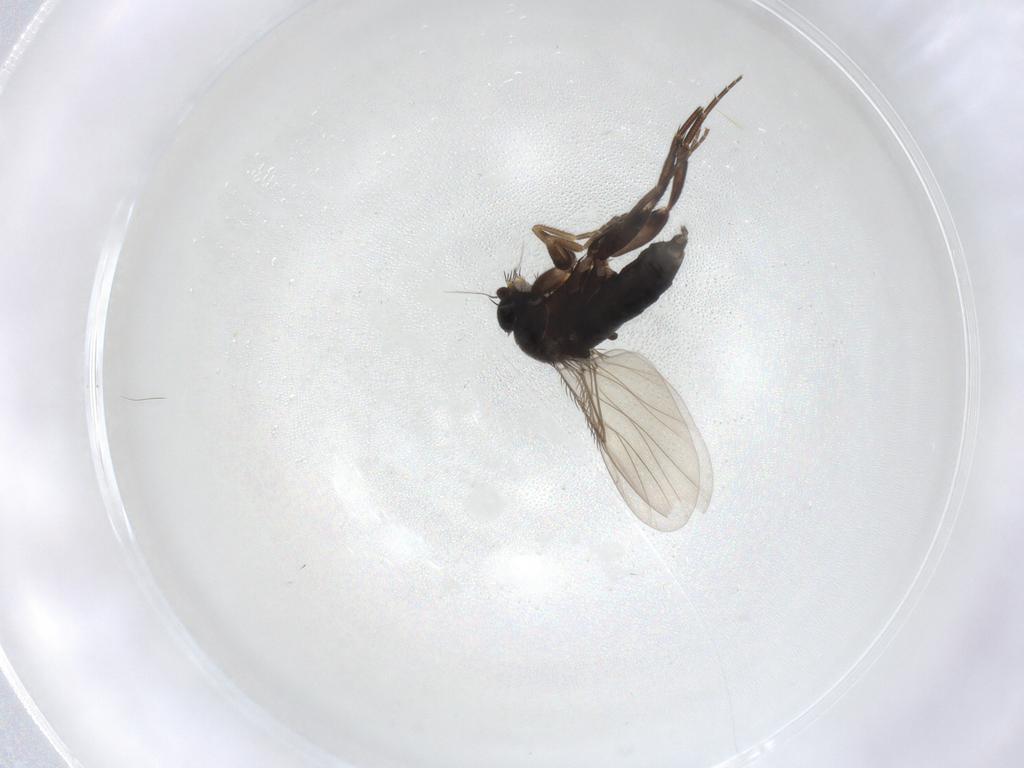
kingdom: Animalia
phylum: Arthropoda
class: Insecta
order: Diptera
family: Phoridae
